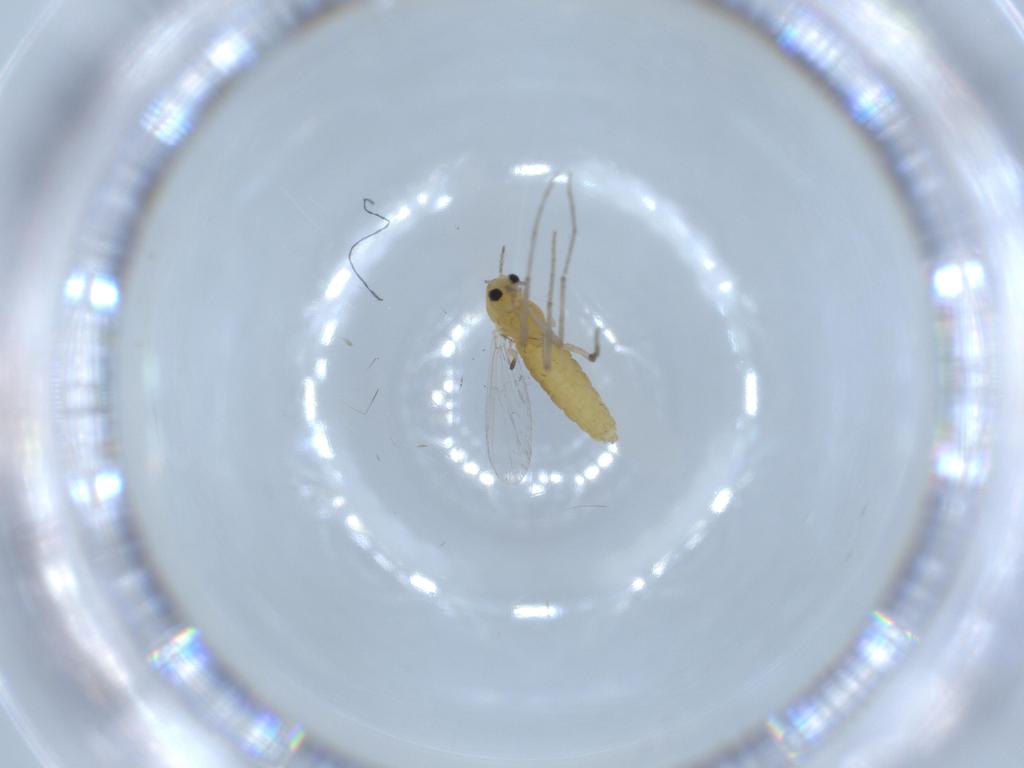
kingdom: Animalia
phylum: Arthropoda
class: Insecta
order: Diptera
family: Chironomidae
